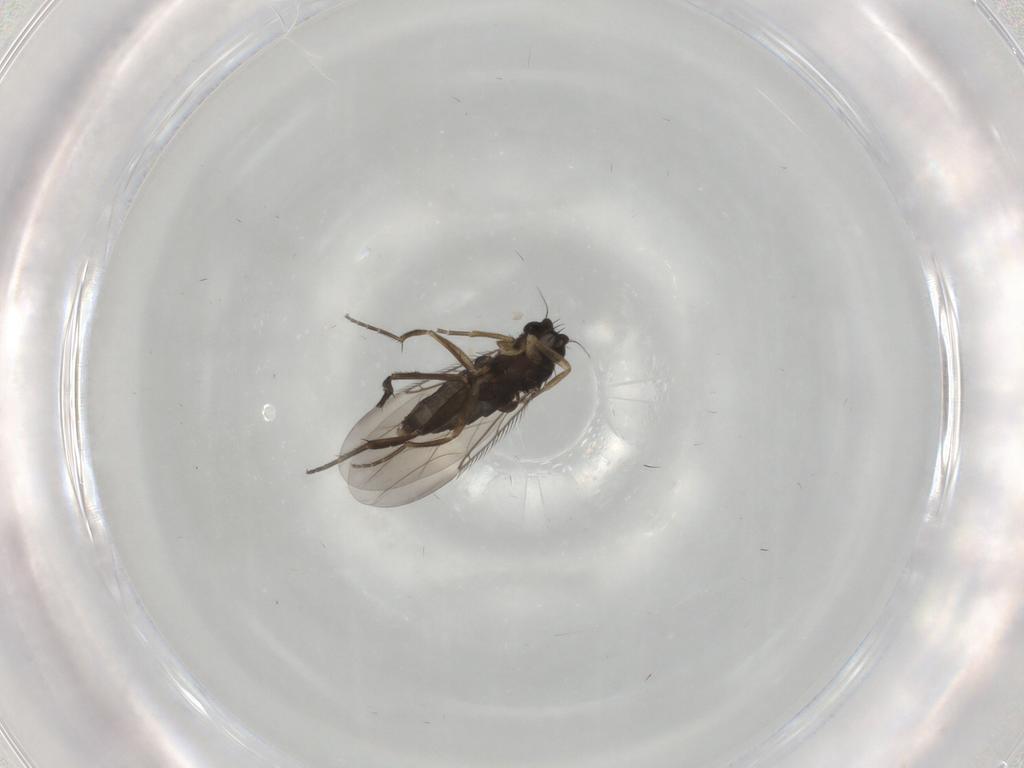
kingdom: Animalia
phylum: Arthropoda
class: Insecta
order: Diptera
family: Phoridae
